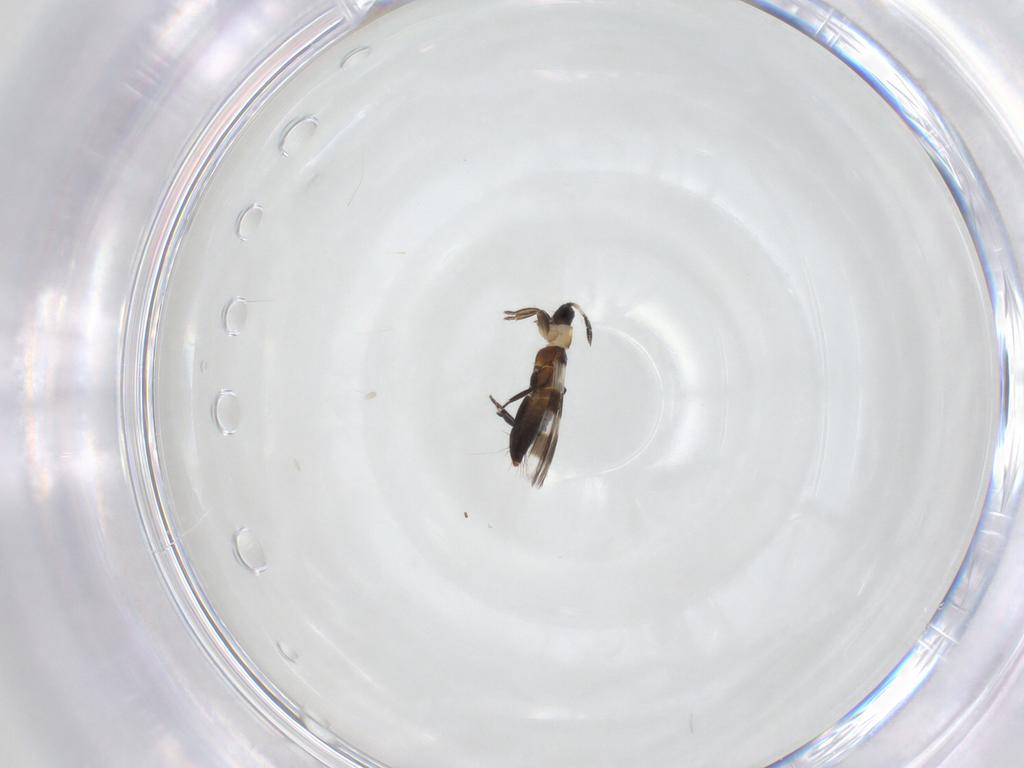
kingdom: Animalia
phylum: Arthropoda
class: Insecta
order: Thysanoptera
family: Aeolothripidae
